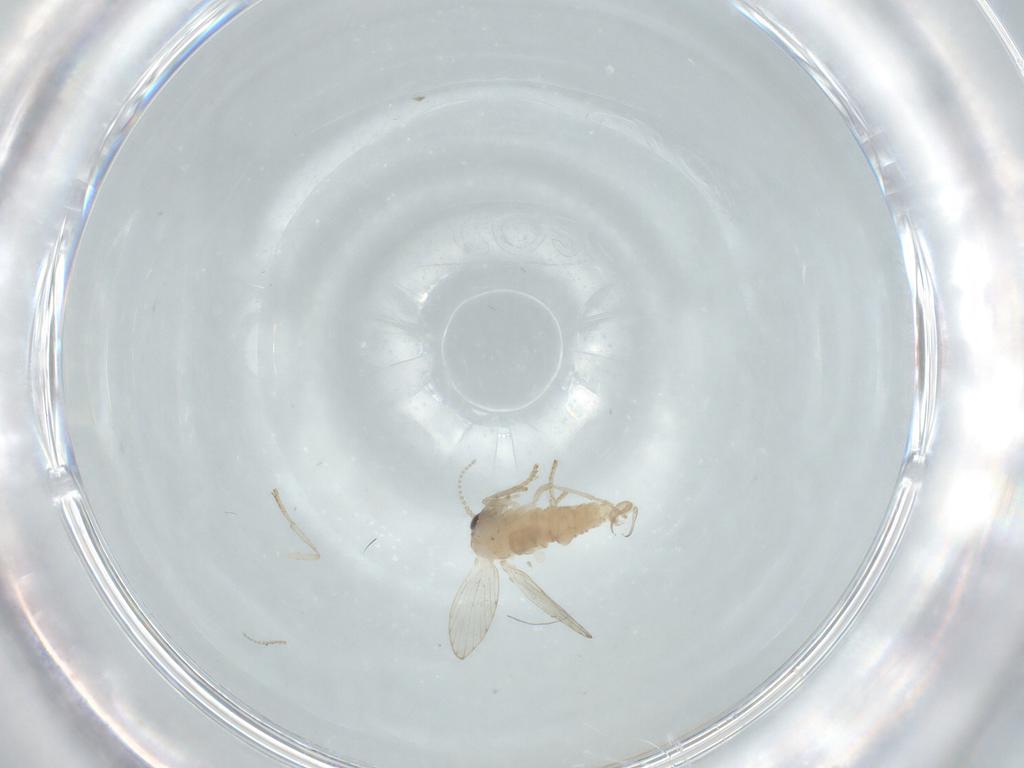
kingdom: Animalia
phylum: Arthropoda
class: Insecta
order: Diptera
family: Psychodidae
